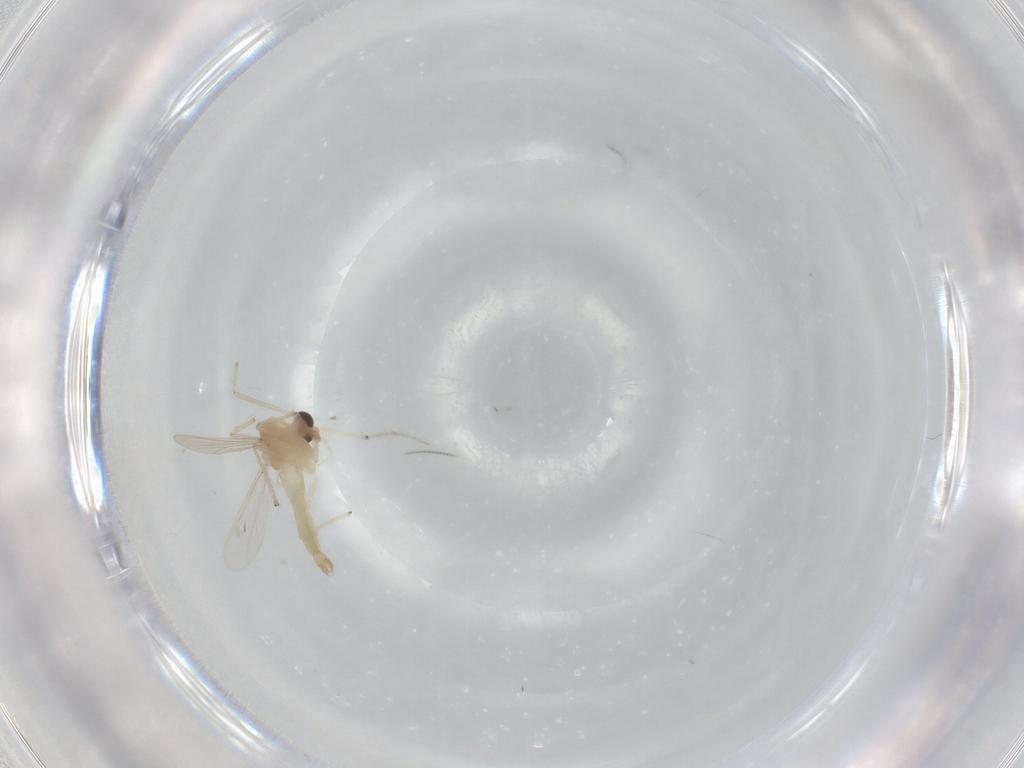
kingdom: Animalia
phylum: Arthropoda
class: Insecta
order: Diptera
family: Chironomidae
